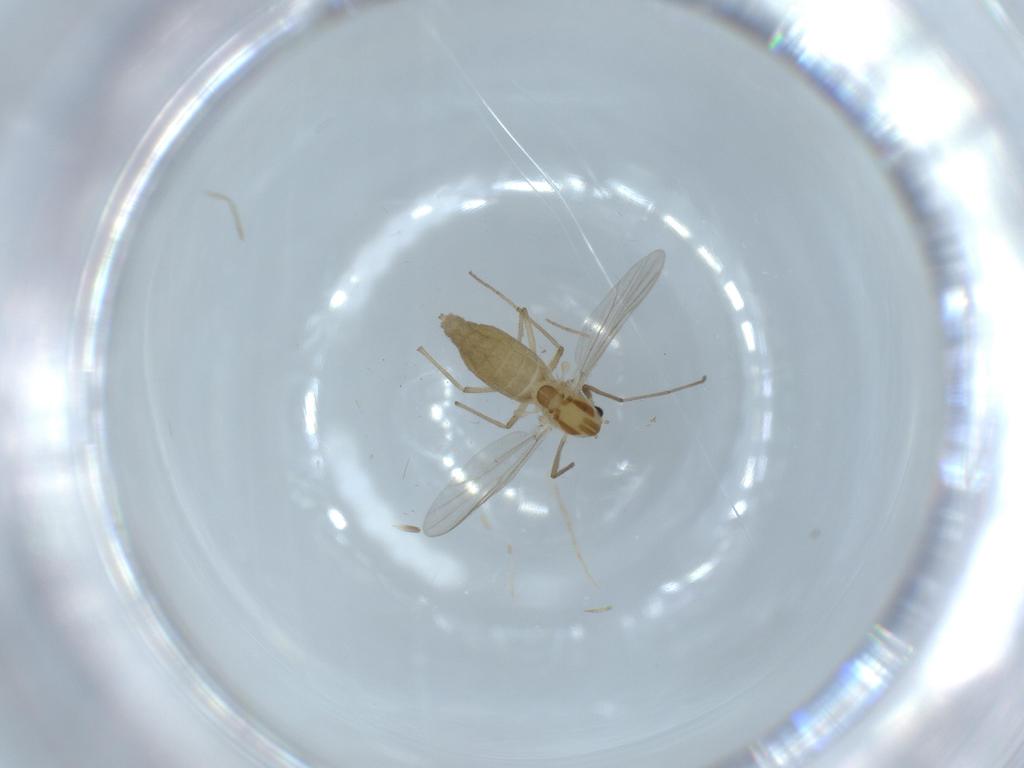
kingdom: Animalia
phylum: Arthropoda
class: Insecta
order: Diptera
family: Chironomidae
